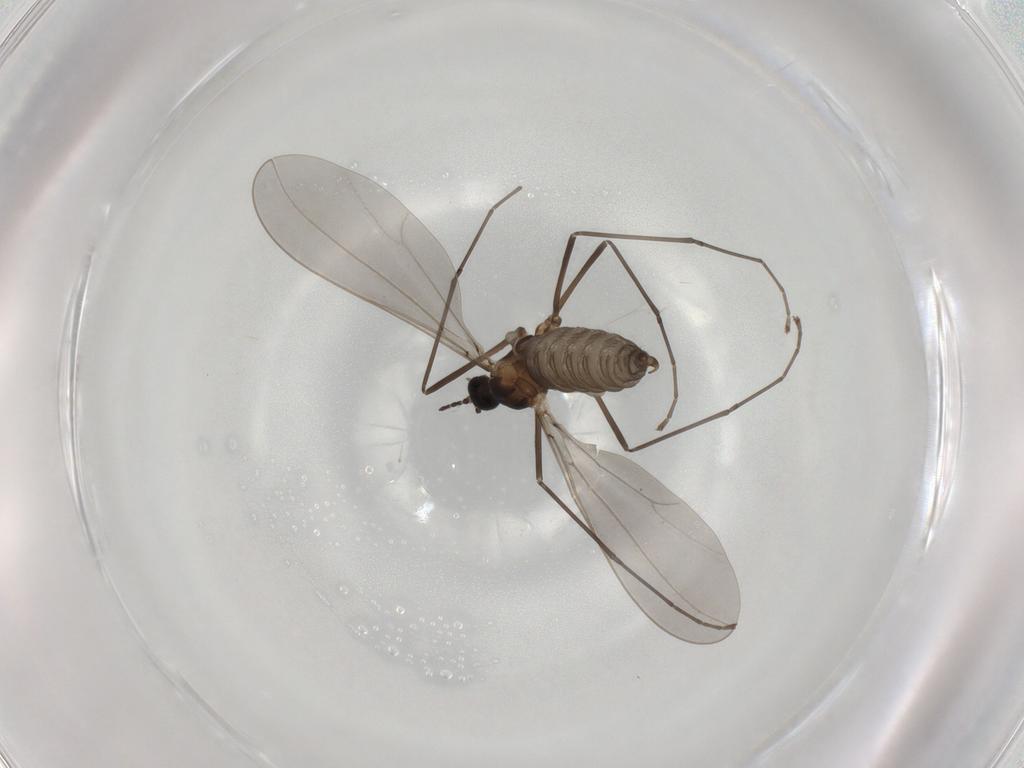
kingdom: Animalia
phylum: Arthropoda
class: Insecta
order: Diptera
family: Cecidomyiidae
